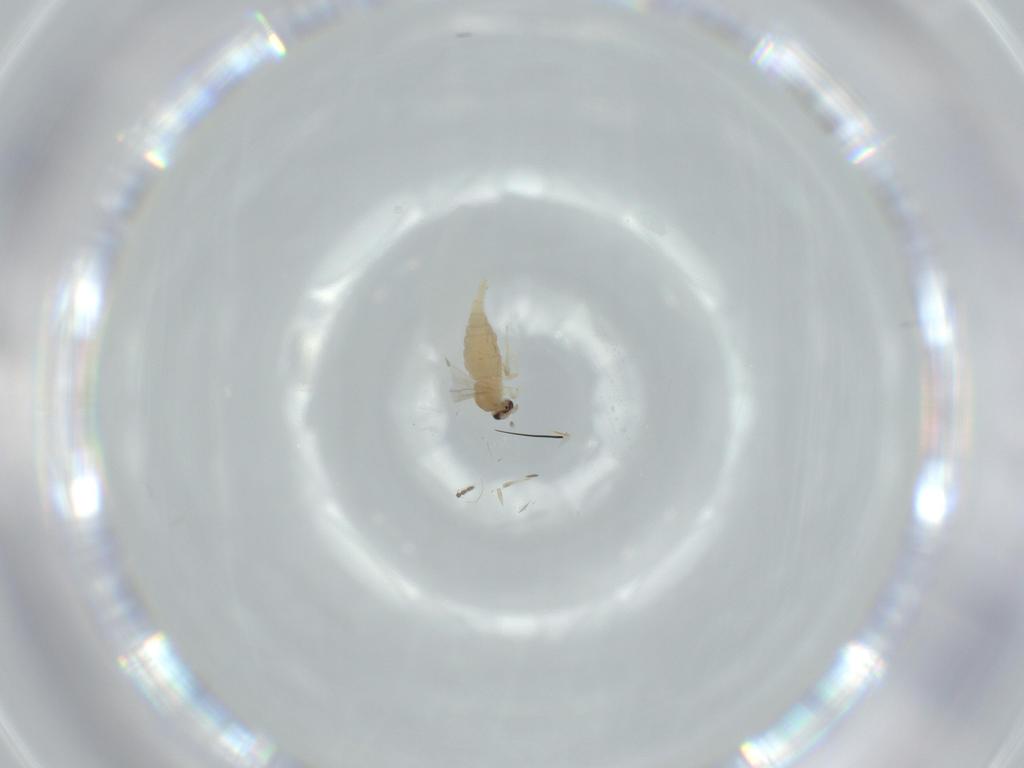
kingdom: Animalia
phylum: Arthropoda
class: Insecta
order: Diptera
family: Cecidomyiidae
